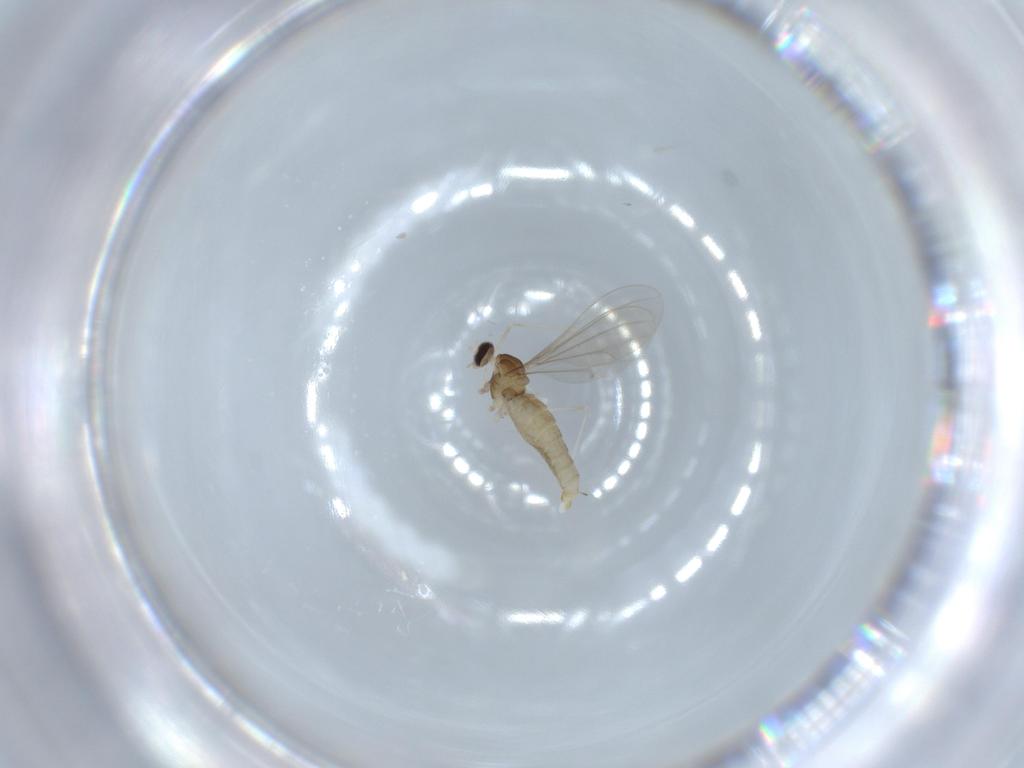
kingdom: Animalia
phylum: Arthropoda
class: Insecta
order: Diptera
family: Cecidomyiidae
